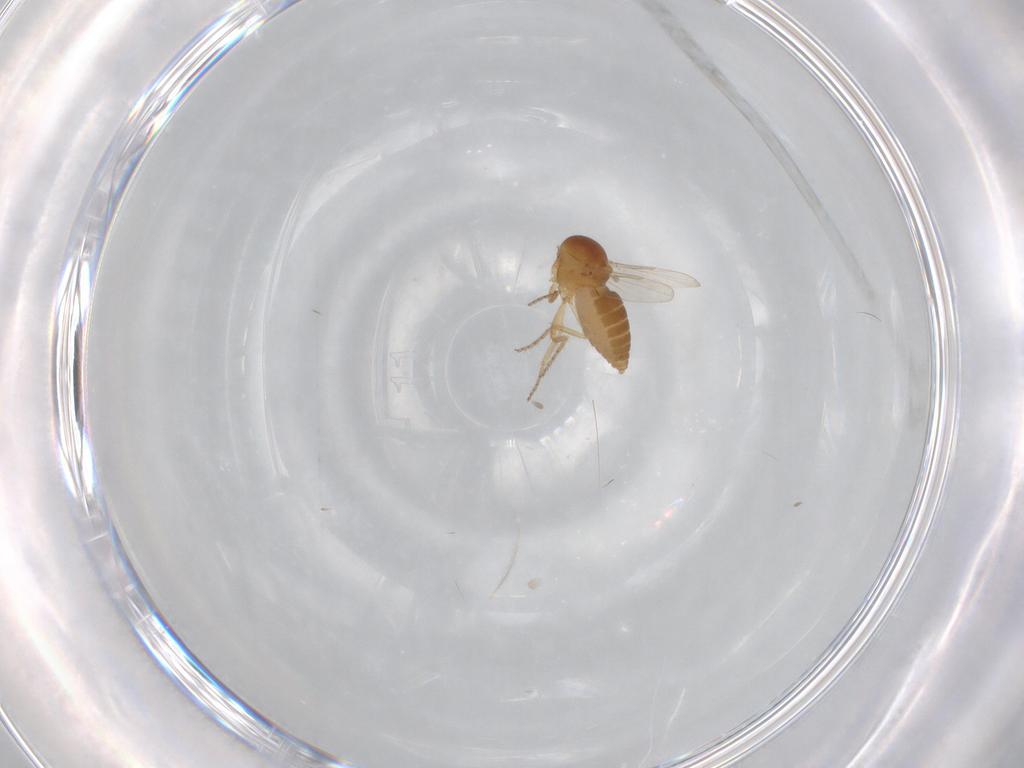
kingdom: Animalia
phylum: Arthropoda
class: Insecta
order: Diptera
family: Ceratopogonidae
